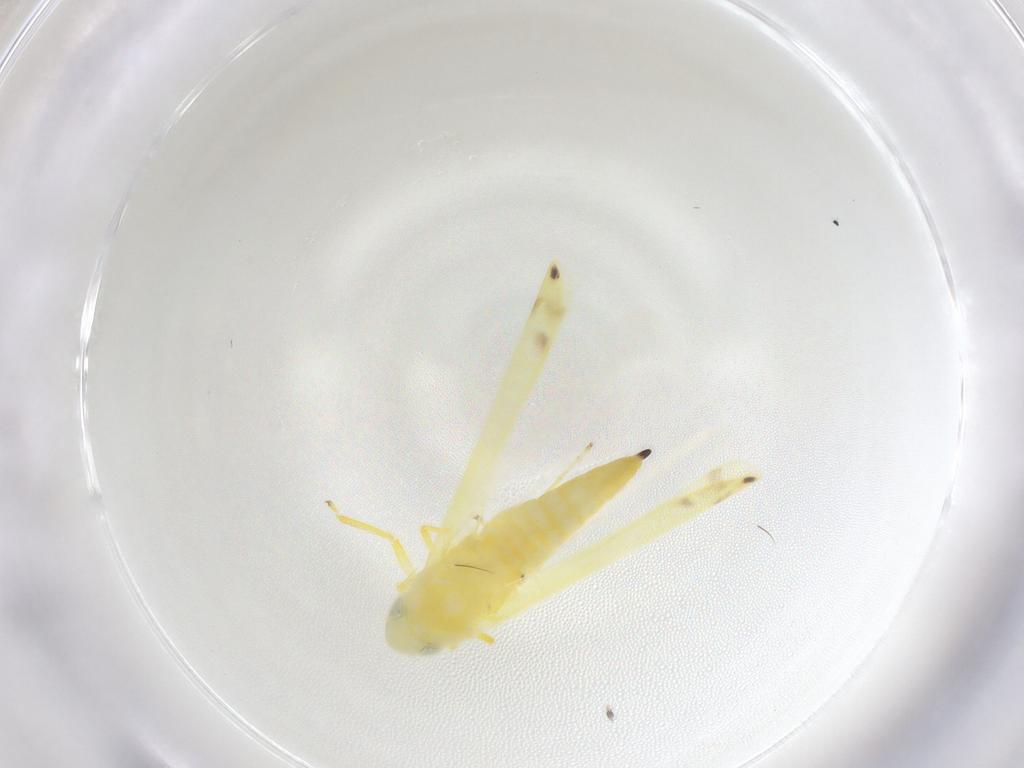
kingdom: Animalia
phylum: Arthropoda
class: Insecta
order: Hemiptera
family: Cicadellidae
